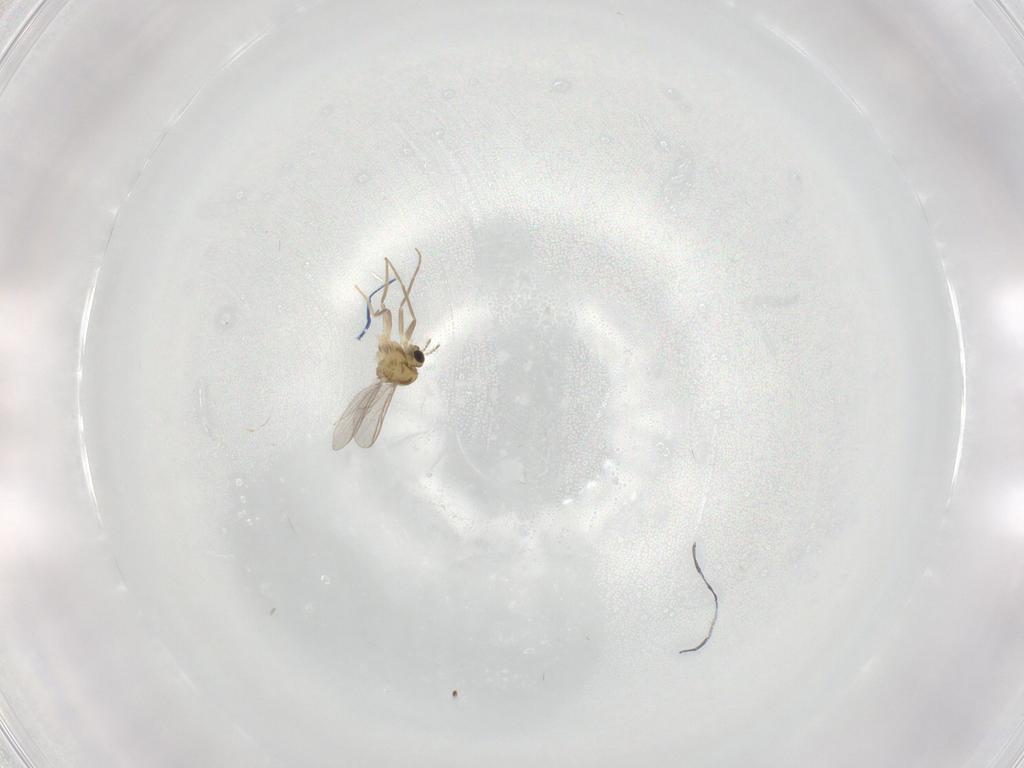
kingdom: Animalia
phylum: Arthropoda
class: Insecta
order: Diptera
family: Chironomidae
